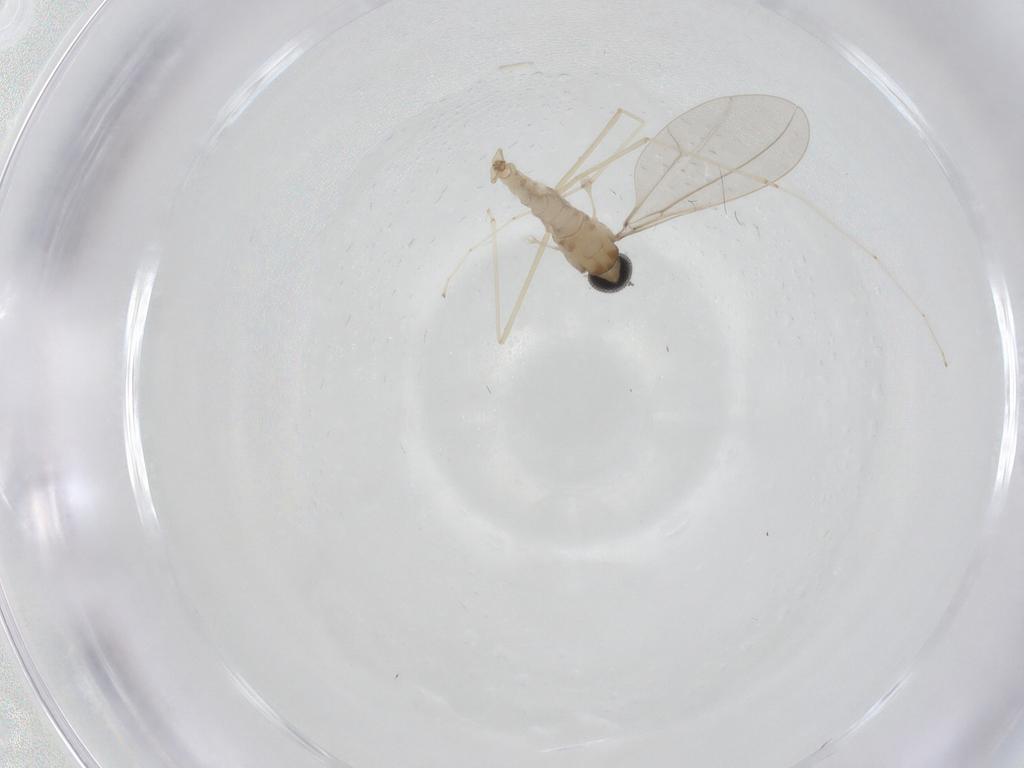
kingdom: Animalia
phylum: Arthropoda
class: Insecta
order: Diptera
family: Cecidomyiidae
